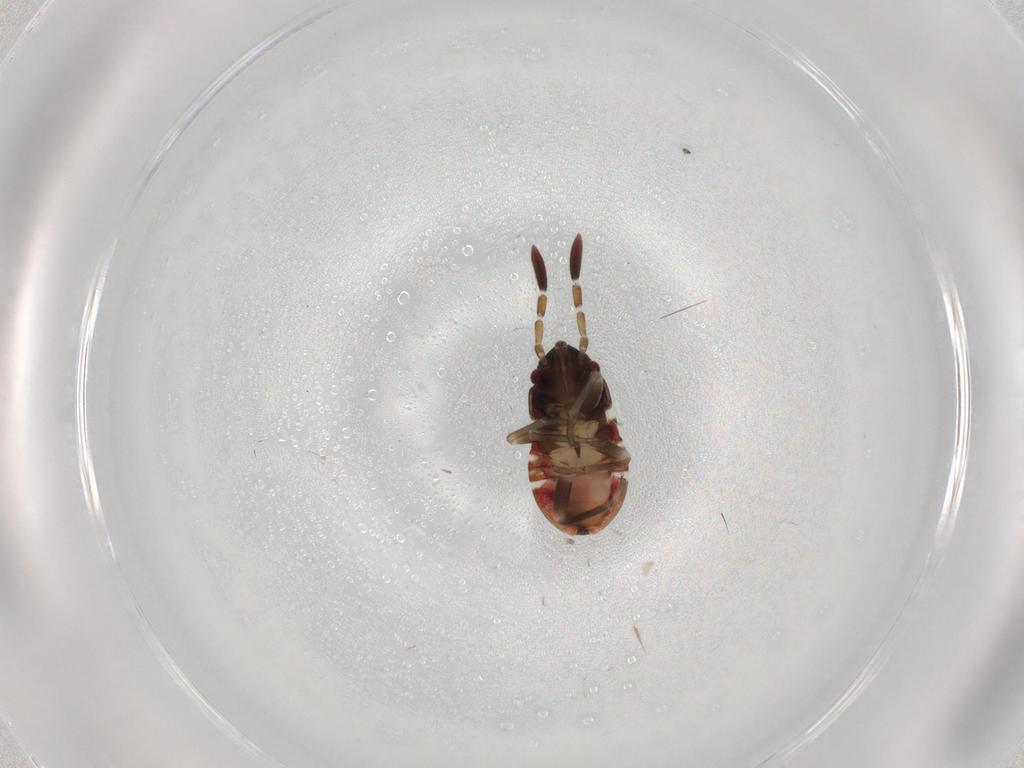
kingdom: Animalia
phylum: Arthropoda
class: Insecta
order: Hemiptera
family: Rhyparochromidae
